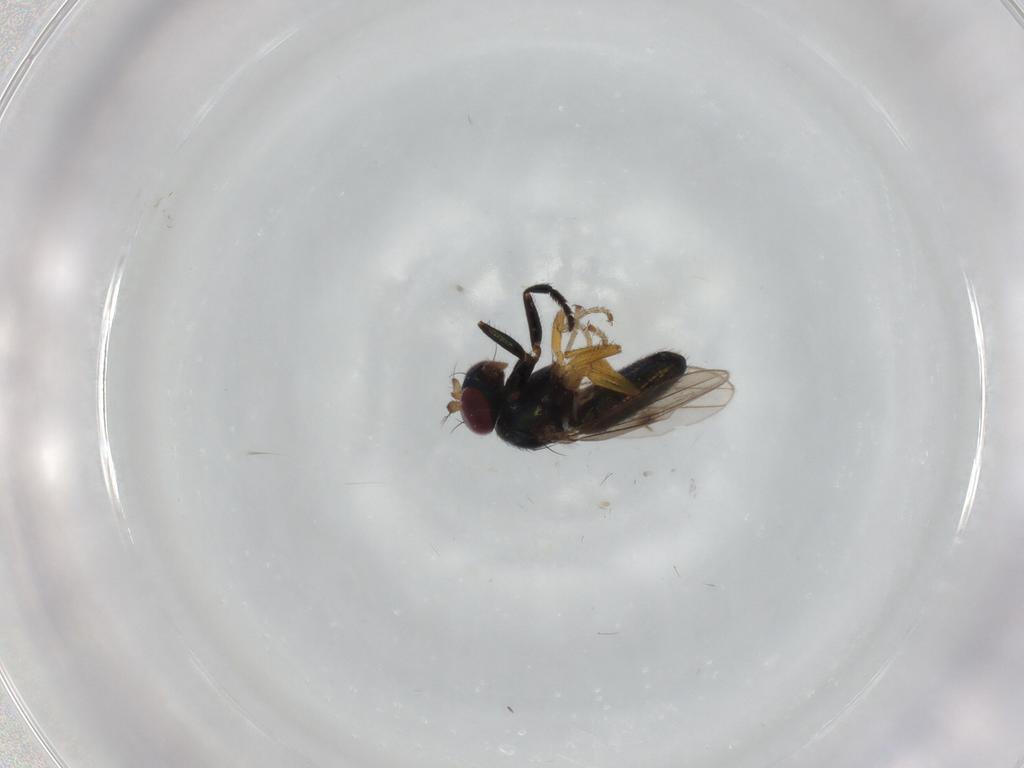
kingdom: Animalia
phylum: Arthropoda
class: Insecta
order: Diptera
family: Ephydridae
